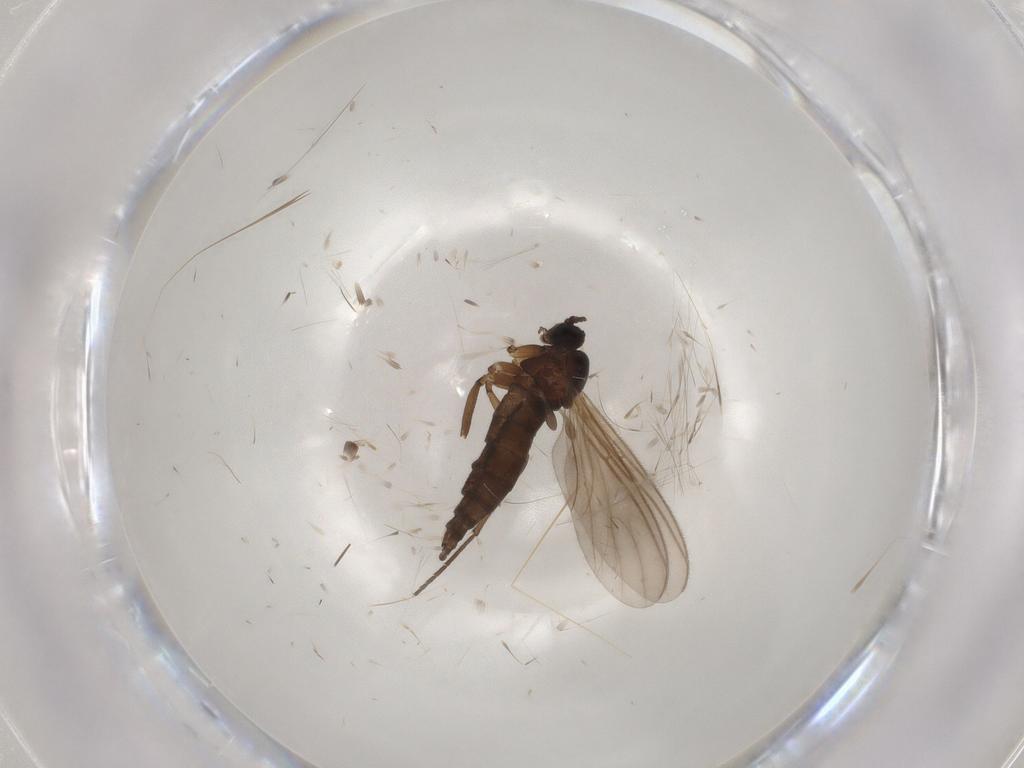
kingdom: Animalia
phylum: Arthropoda
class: Insecta
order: Diptera
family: Sciaridae
